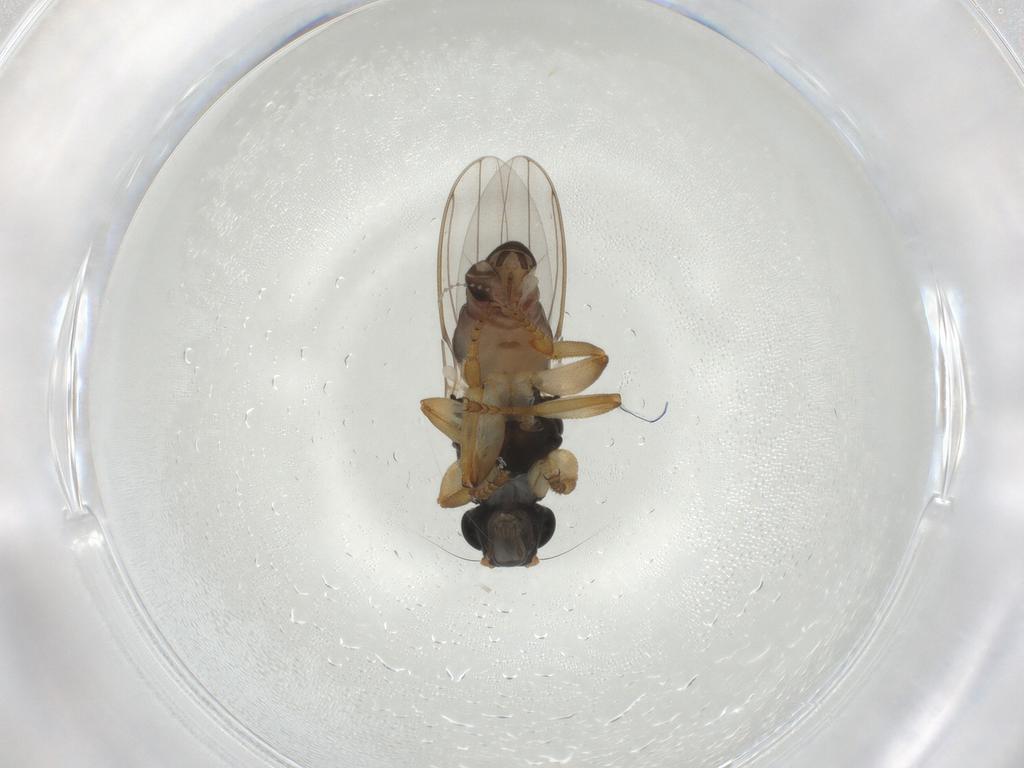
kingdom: Animalia
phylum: Arthropoda
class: Insecta
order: Diptera
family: Sphaeroceridae
